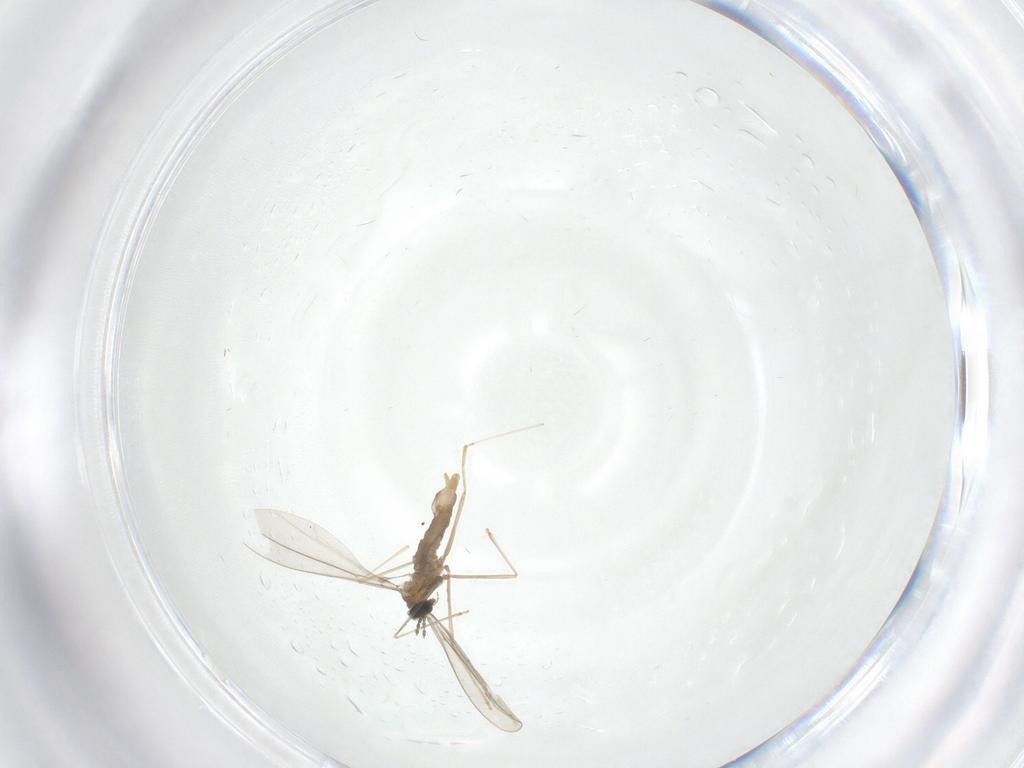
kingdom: Animalia
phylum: Arthropoda
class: Insecta
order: Diptera
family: Cecidomyiidae
